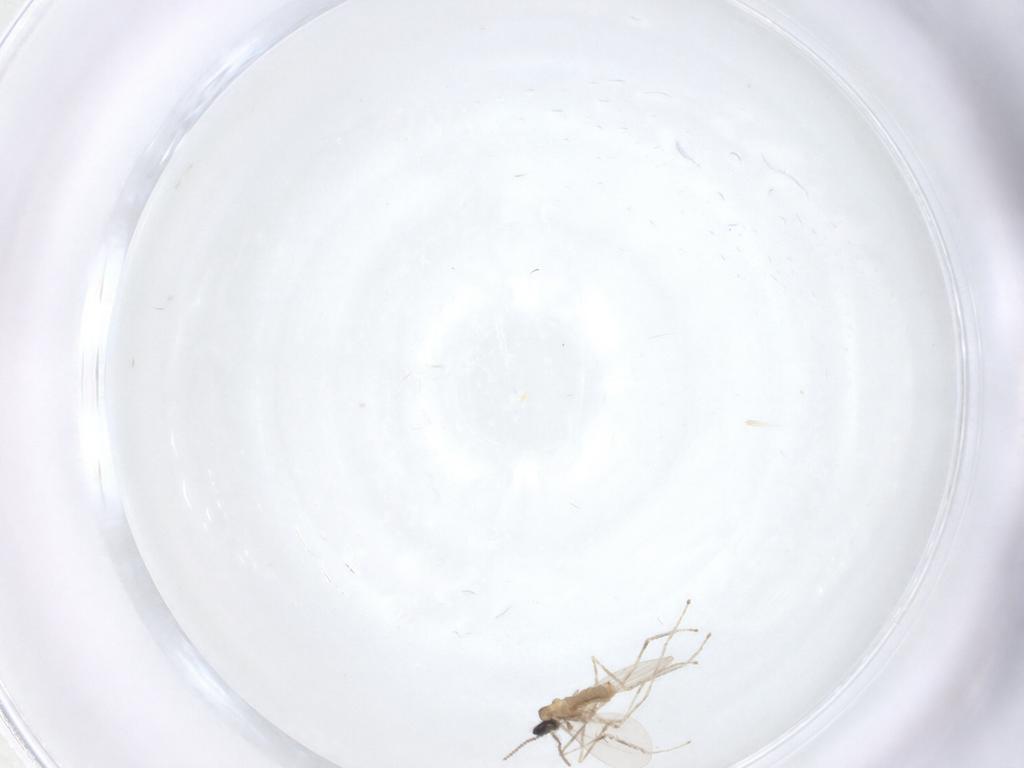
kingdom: Animalia
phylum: Arthropoda
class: Insecta
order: Diptera
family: Cecidomyiidae
